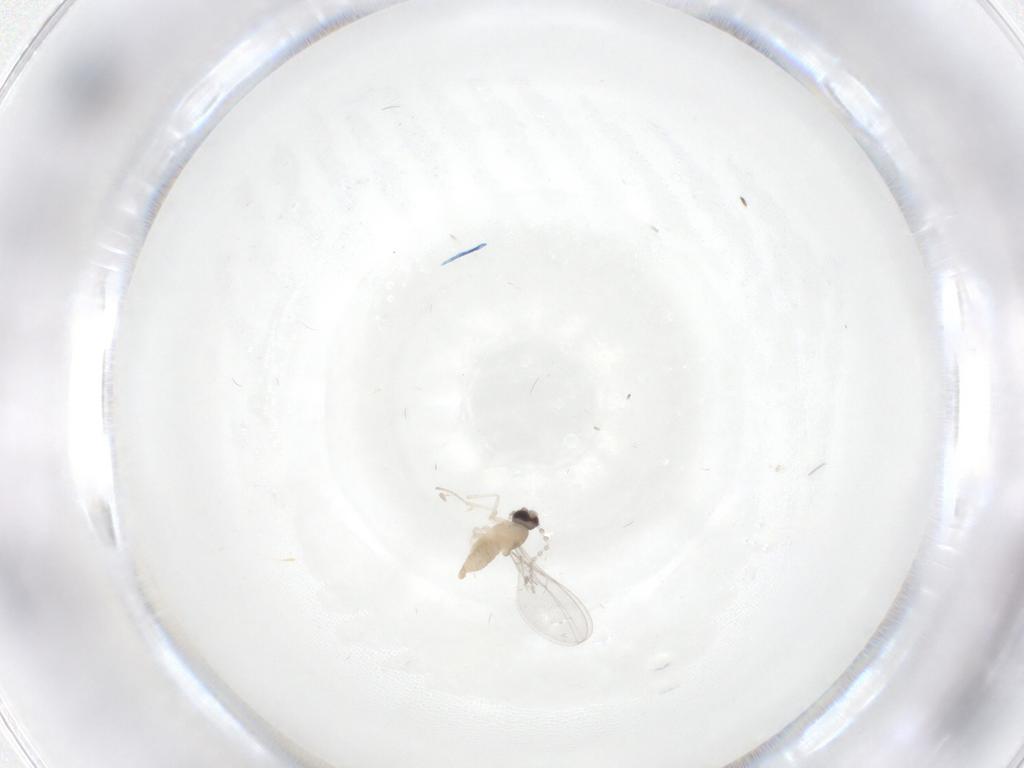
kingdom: Animalia
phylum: Arthropoda
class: Insecta
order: Diptera
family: Cecidomyiidae
